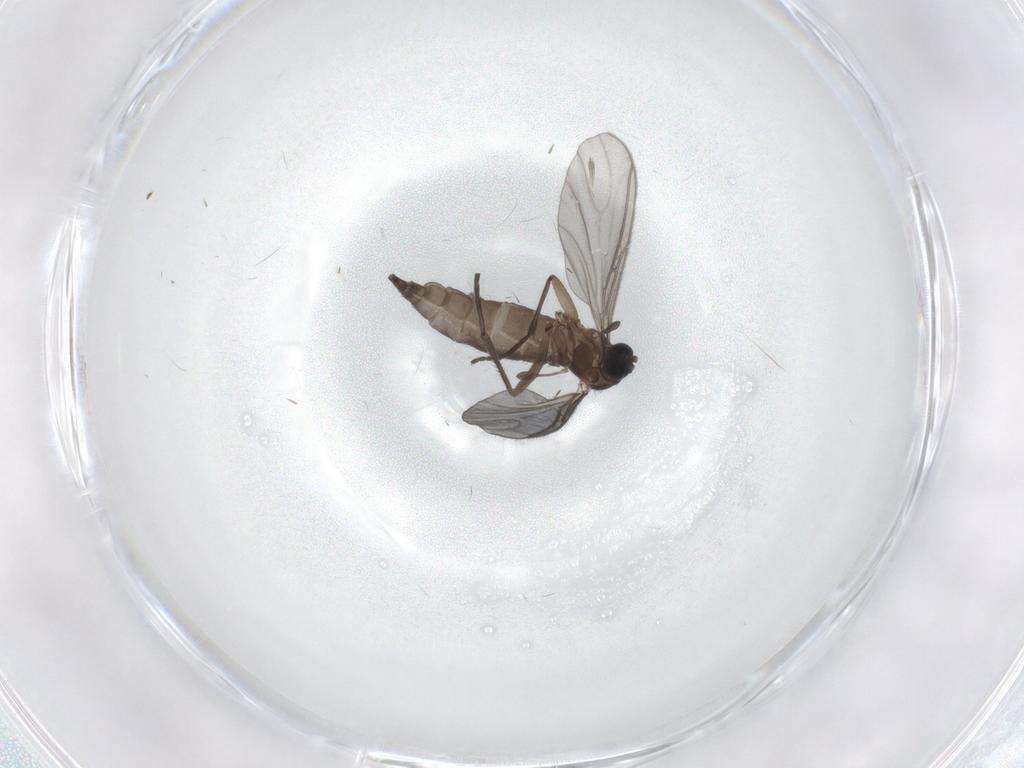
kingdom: Animalia
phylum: Arthropoda
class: Insecta
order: Diptera
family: Sciaridae
